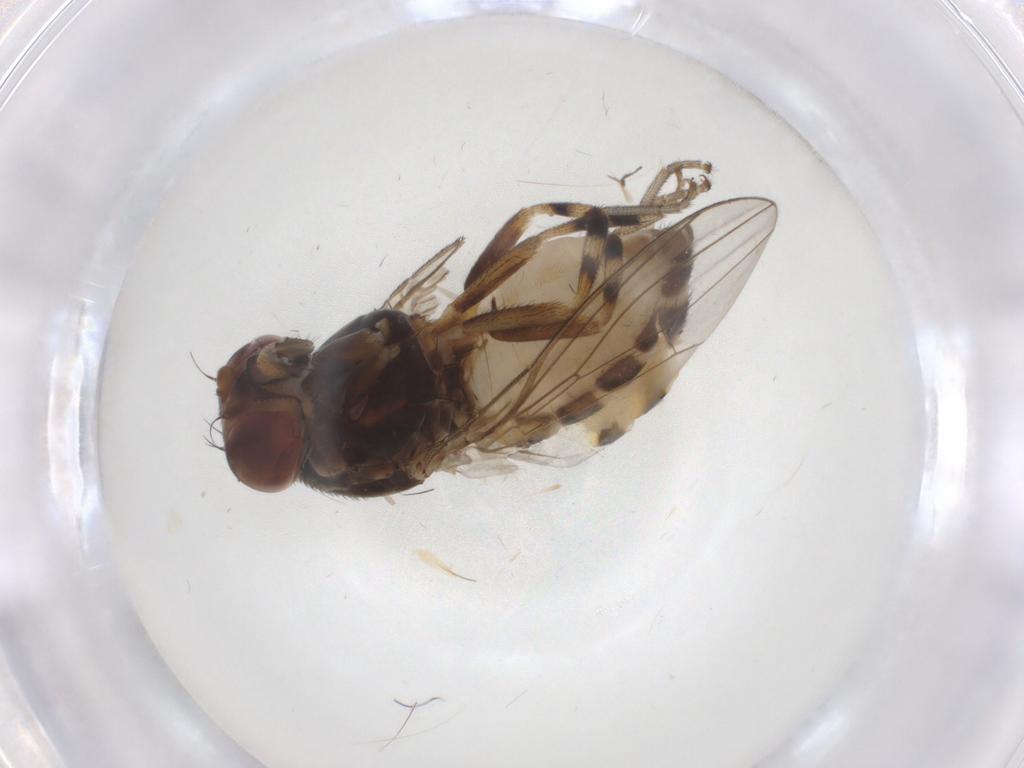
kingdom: Animalia
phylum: Arthropoda
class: Insecta
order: Diptera
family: Drosophilidae
